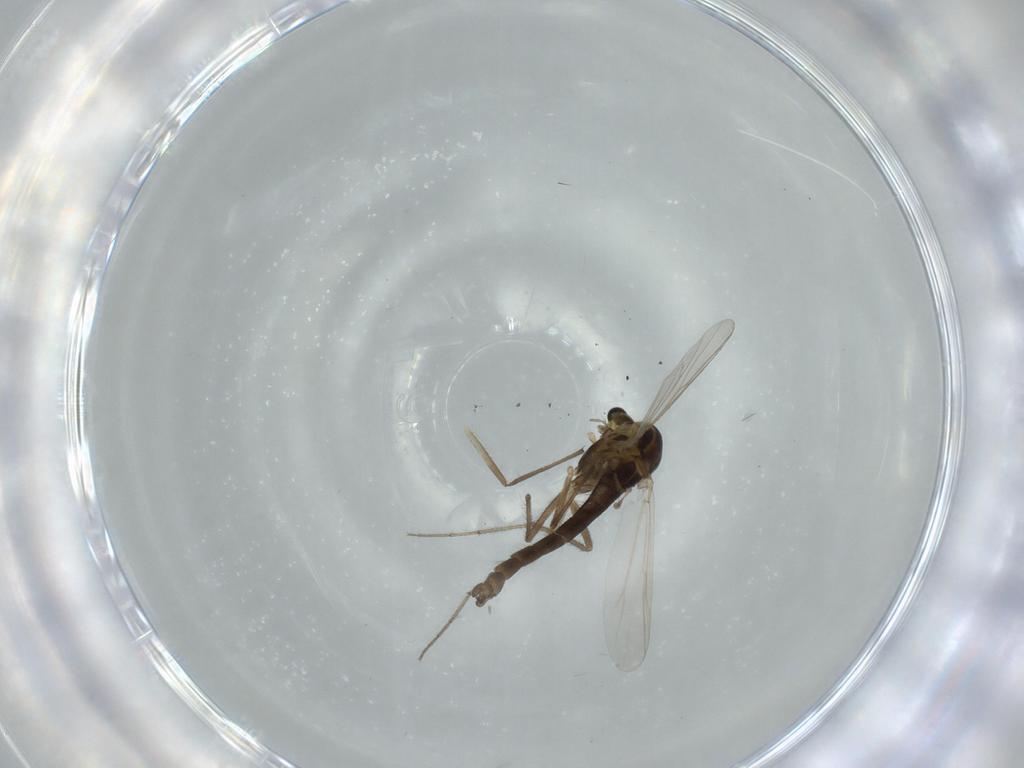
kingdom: Animalia
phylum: Arthropoda
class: Insecta
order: Diptera
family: Chironomidae
